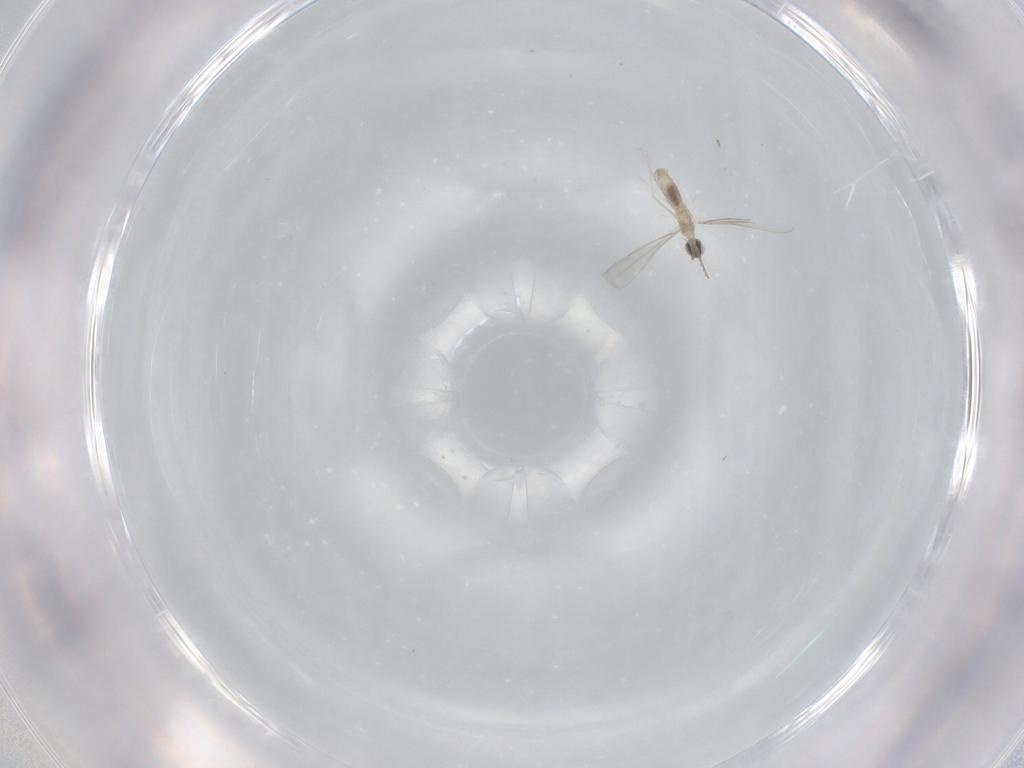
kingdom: Animalia
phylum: Arthropoda
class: Insecta
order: Diptera
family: Cecidomyiidae
